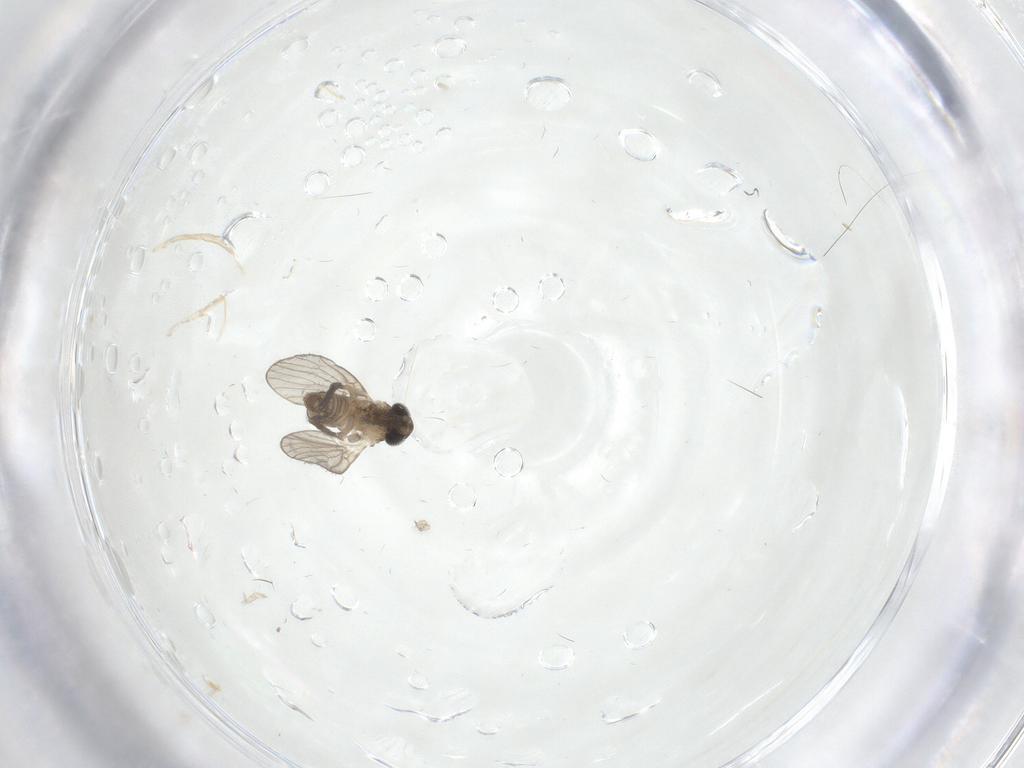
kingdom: Animalia
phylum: Arthropoda
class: Insecta
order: Diptera
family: Psychodidae
